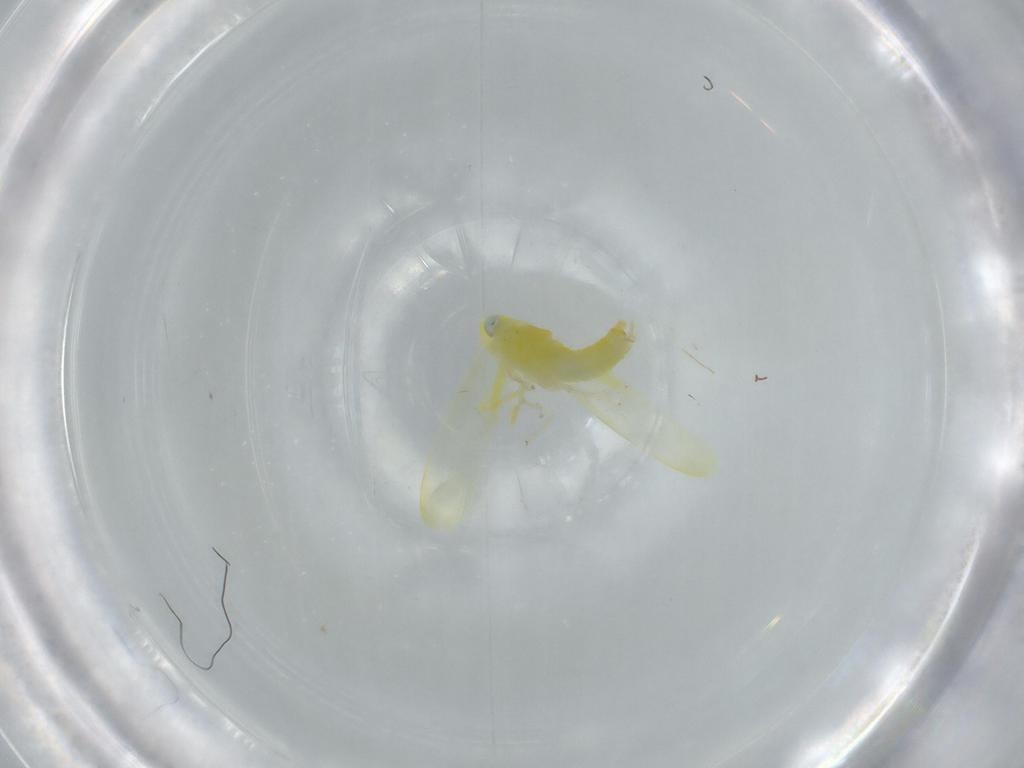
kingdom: Animalia
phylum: Arthropoda
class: Insecta
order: Hemiptera
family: Cicadellidae
